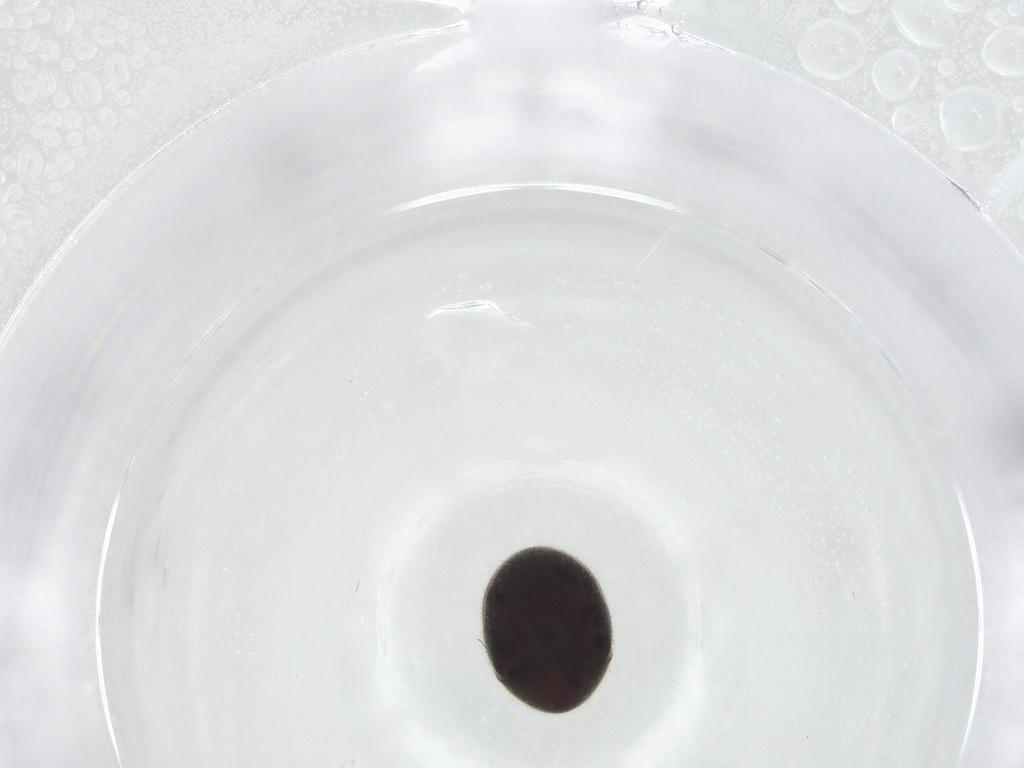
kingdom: Animalia
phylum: Arthropoda
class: Insecta
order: Coleoptera
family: Ptinidae
